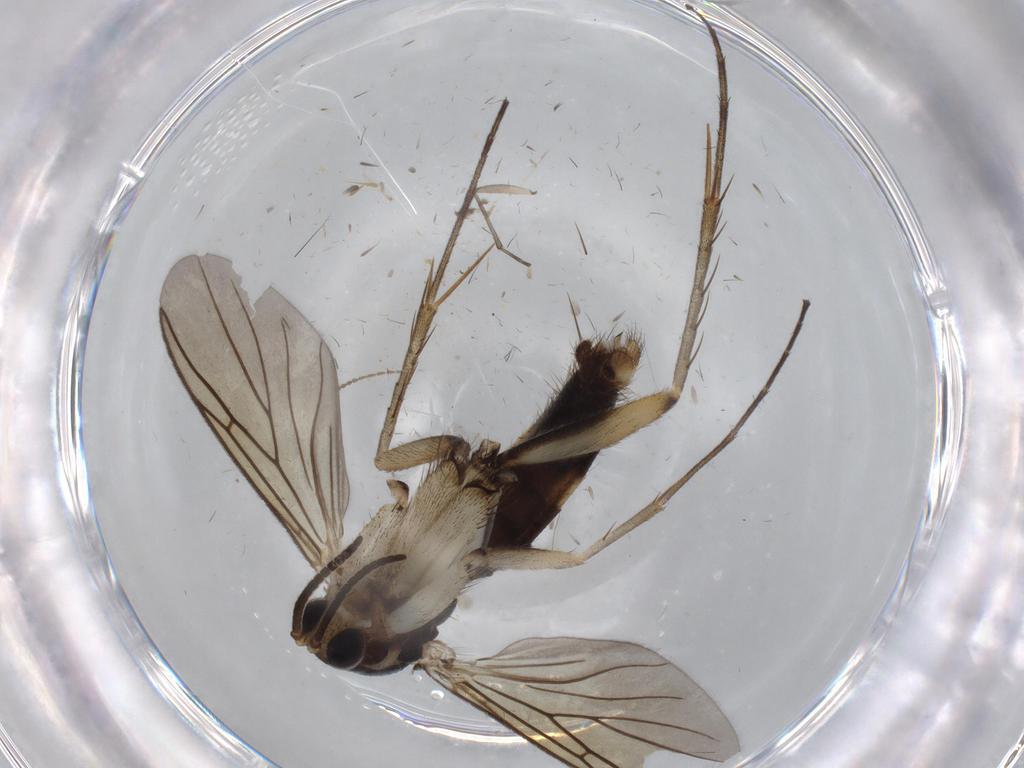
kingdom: Animalia
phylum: Arthropoda
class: Insecta
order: Diptera
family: Sciaridae
